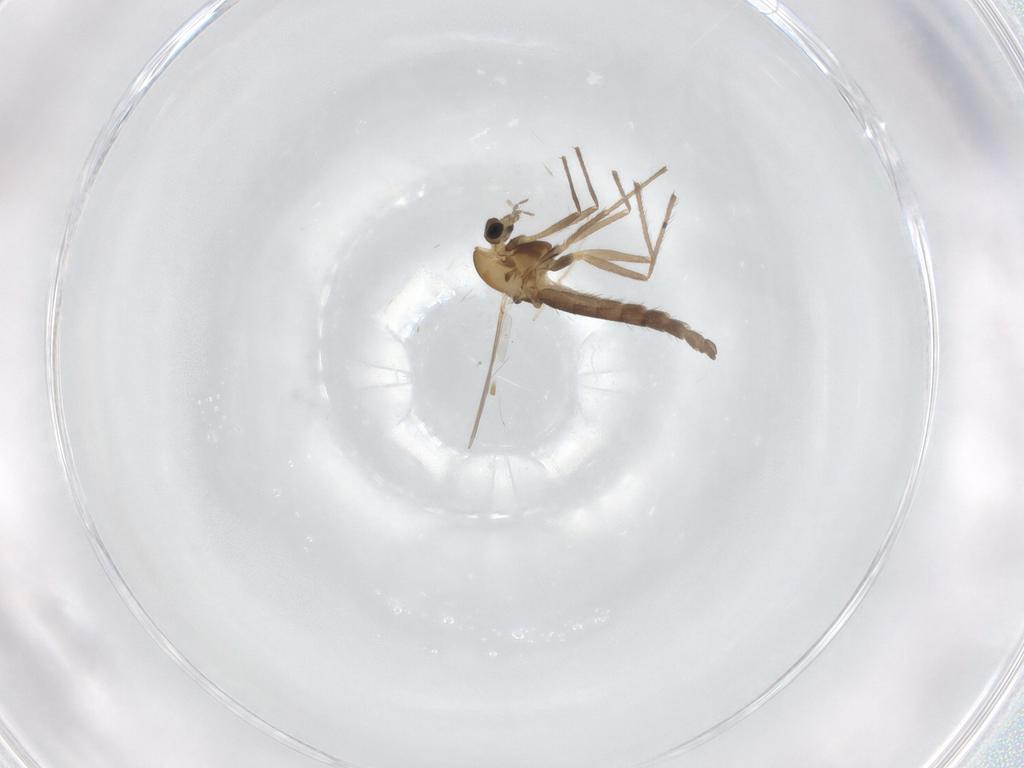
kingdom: Animalia
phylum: Arthropoda
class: Insecta
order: Diptera
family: Chironomidae
